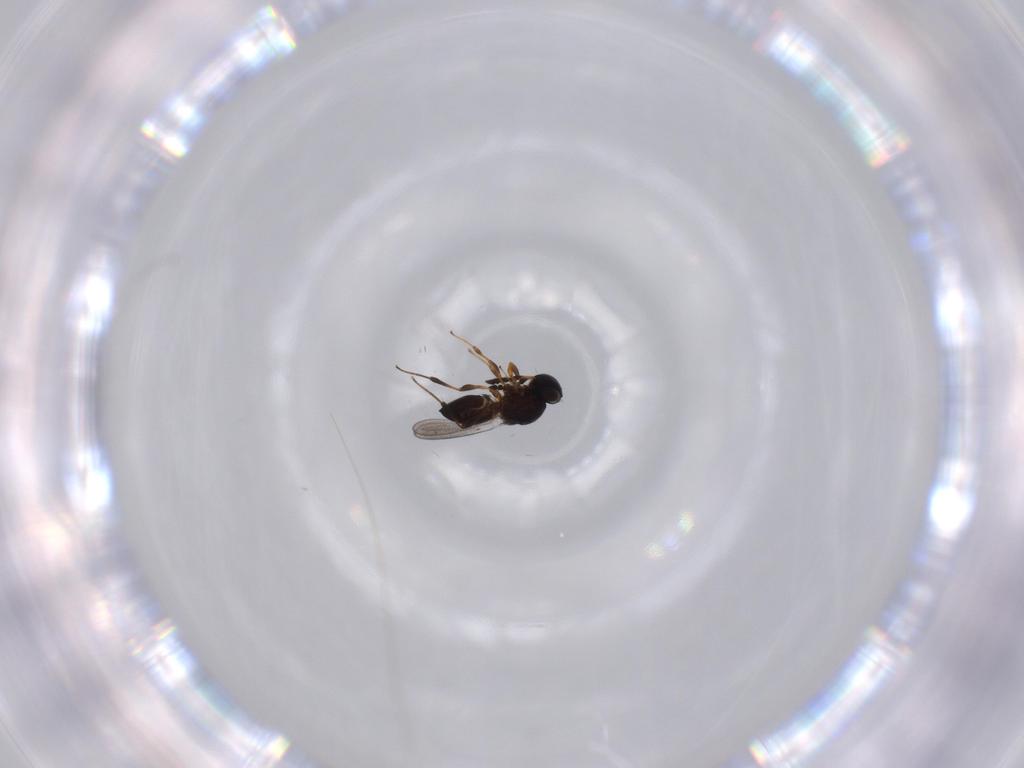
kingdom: Animalia
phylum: Arthropoda
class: Insecta
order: Hymenoptera
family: Platygastridae
